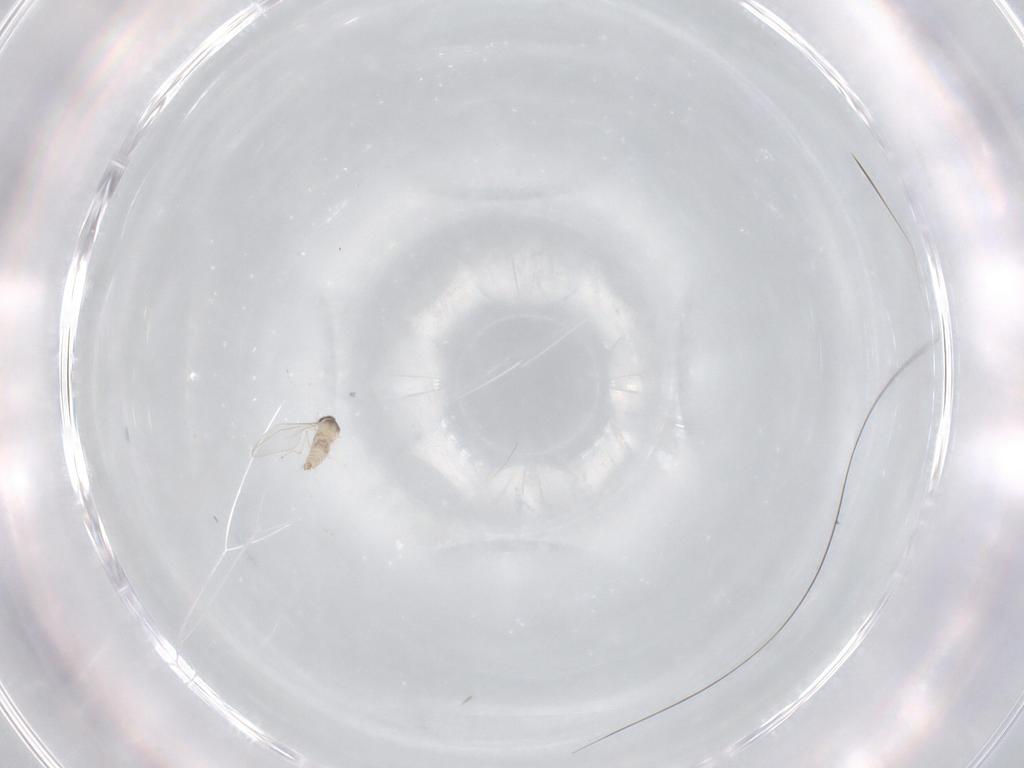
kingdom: Animalia
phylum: Arthropoda
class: Insecta
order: Diptera
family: Cecidomyiidae
